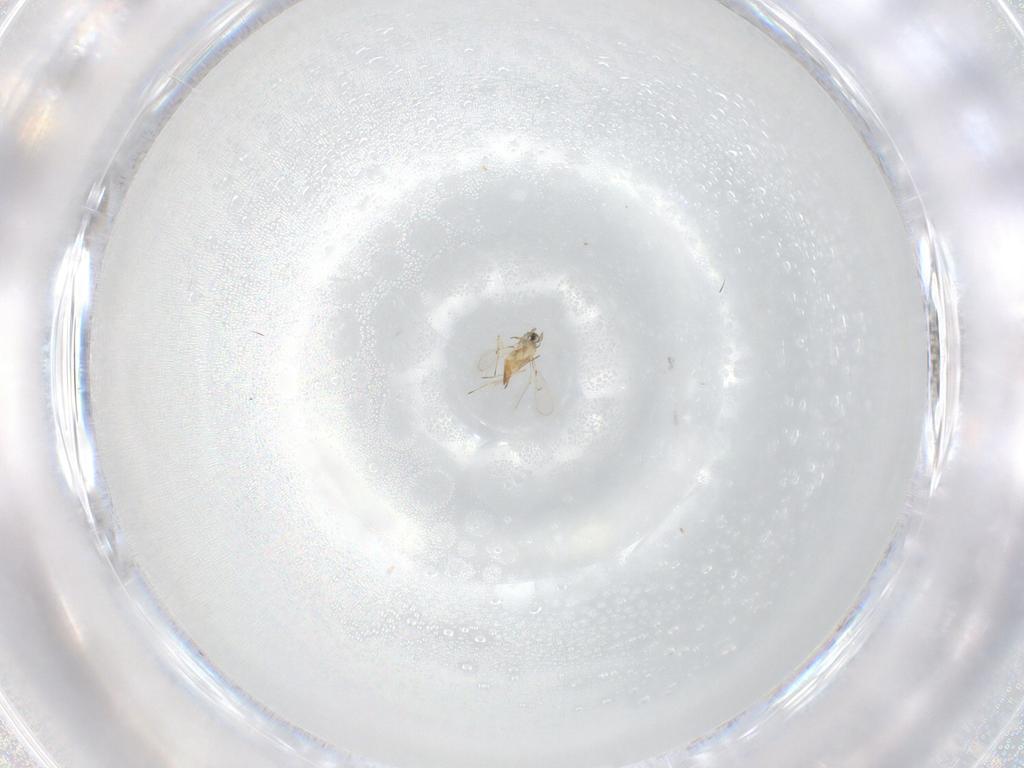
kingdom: Animalia
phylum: Arthropoda
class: Insecta
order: Hymenoptera
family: Trichogrammatidae
